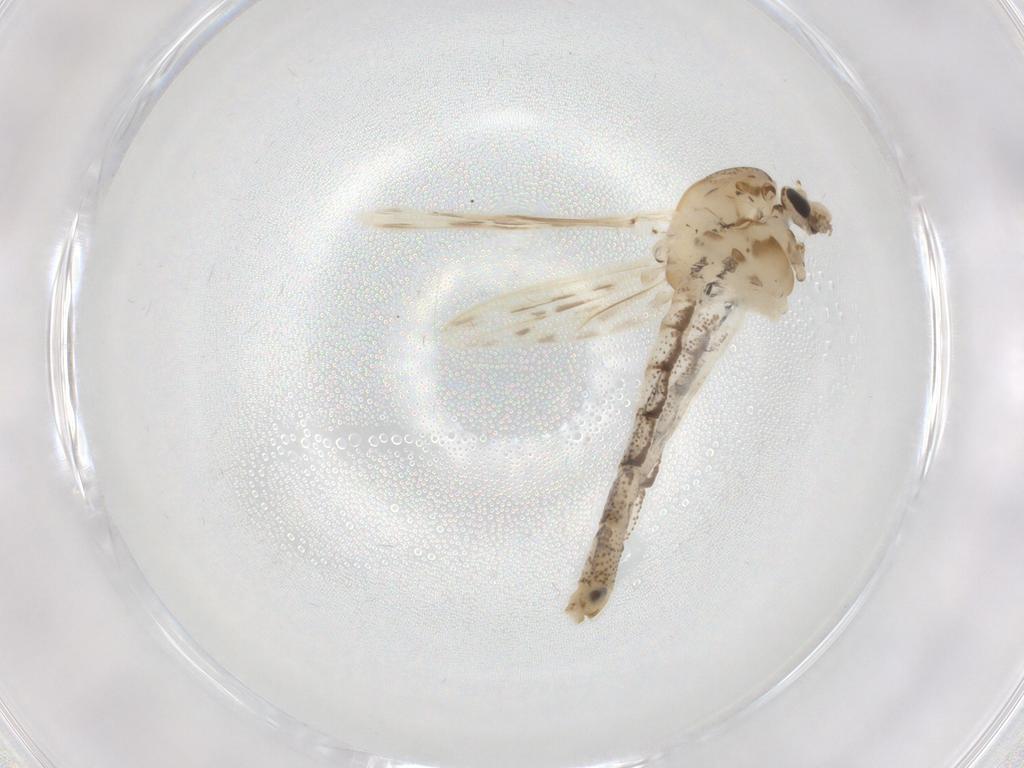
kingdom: Animalia
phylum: Arthropoda
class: Insecta
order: Diptera
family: Chaoboridae
